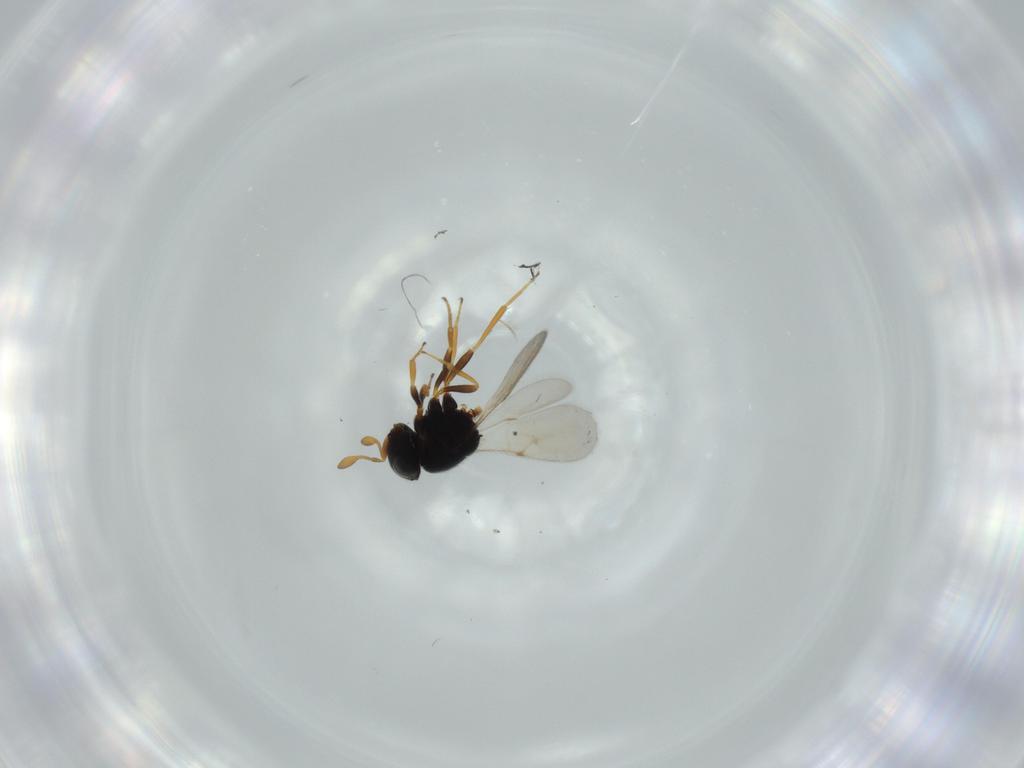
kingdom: Animalia
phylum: Arthropoda
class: Insecta
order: Hymenoptera
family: Scelionidae
